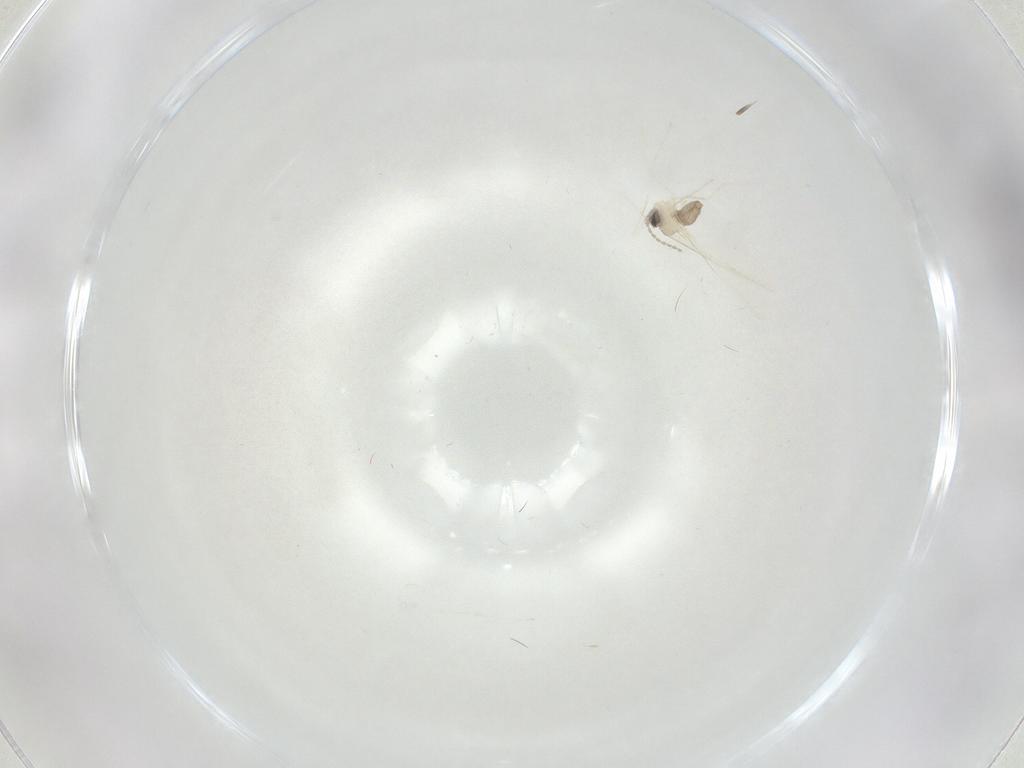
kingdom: Animalia
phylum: Arthropoda
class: Insecta
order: Diptera
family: Cecidomyiidae
